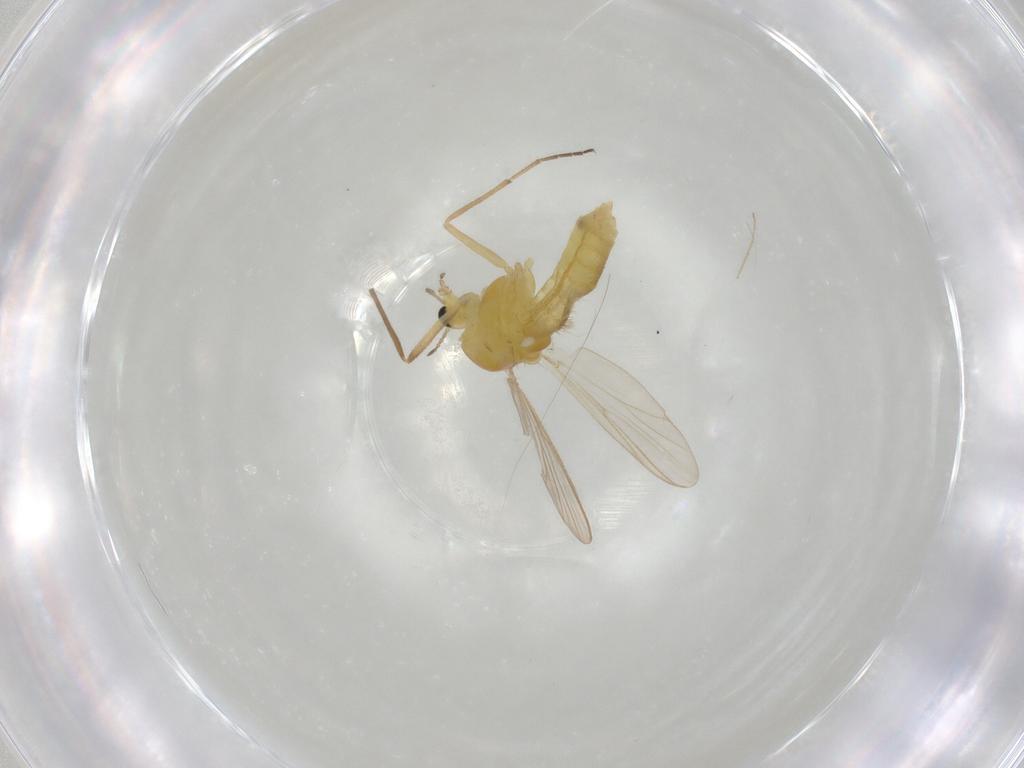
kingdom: Animalia
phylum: Arthropoda
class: Insecta
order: Diptera
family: Chironomidae
